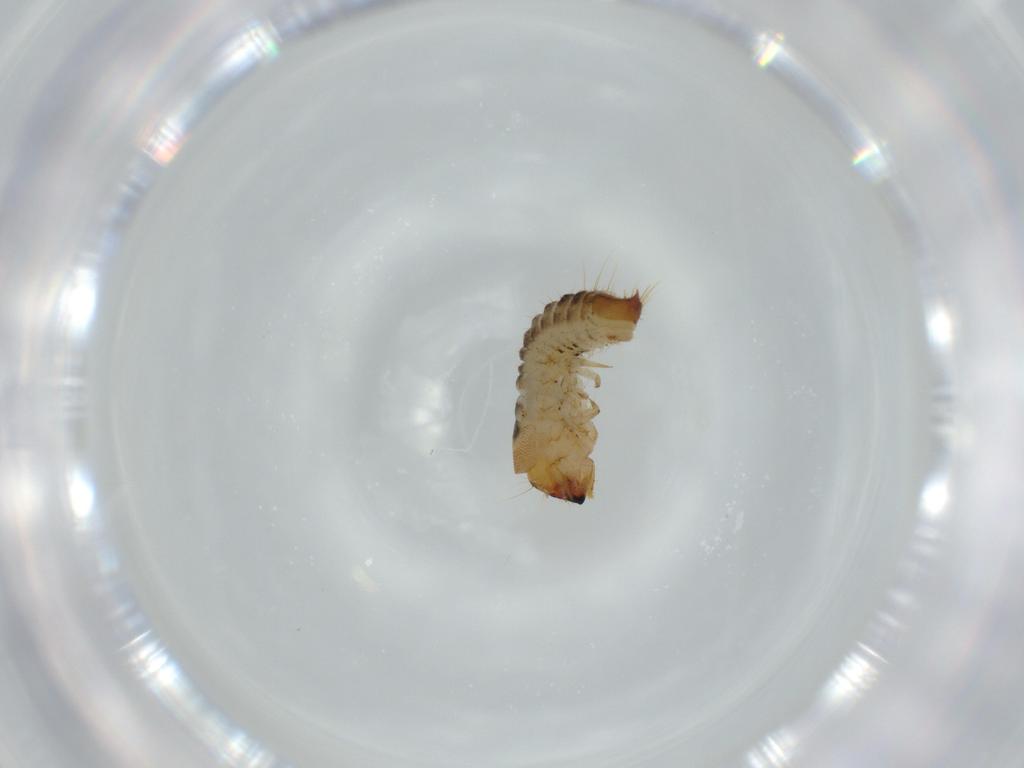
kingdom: Animalia
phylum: Arthropoda
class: Insecta
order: Coleoptera
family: Lymexylidae
